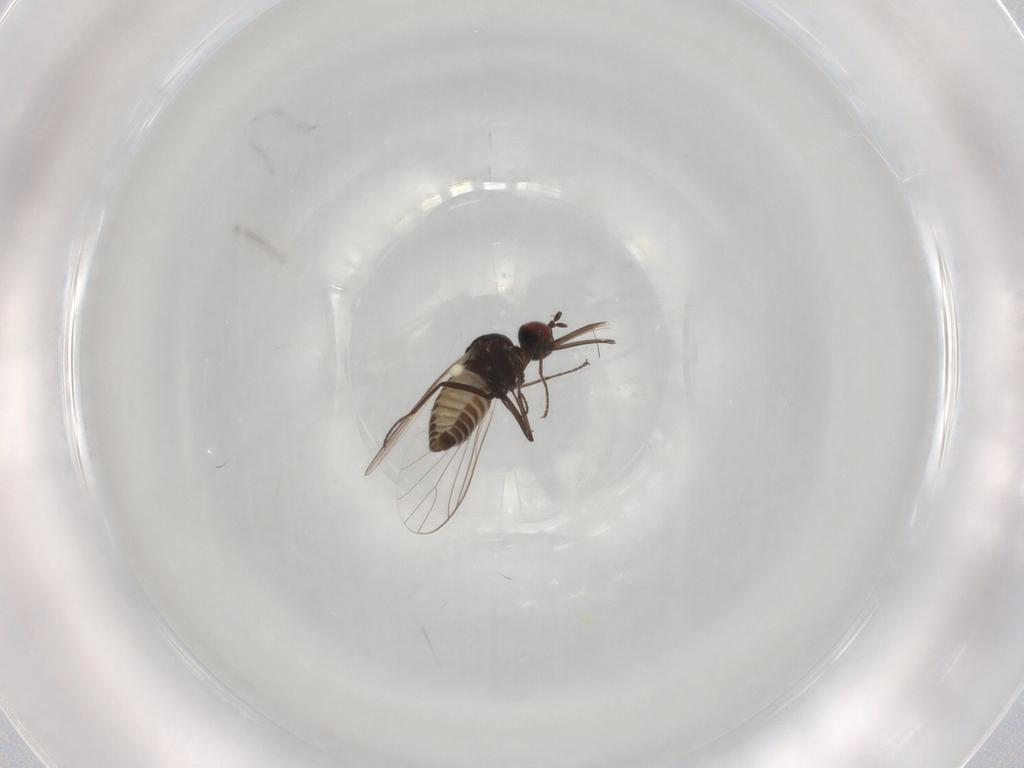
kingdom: Animalia
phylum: Arthropoda
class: Insecta
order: Diptera
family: Bombyliidae
